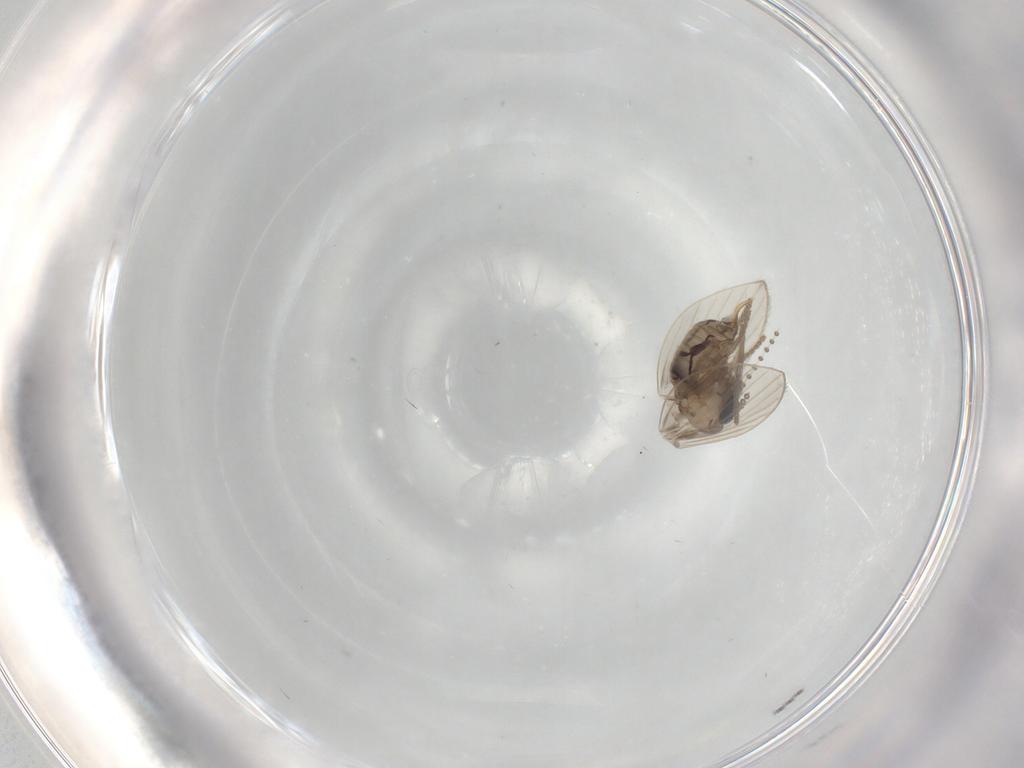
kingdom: Animalia
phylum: Arthropoda
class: Insecta
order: Diptera
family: Psychodidae
